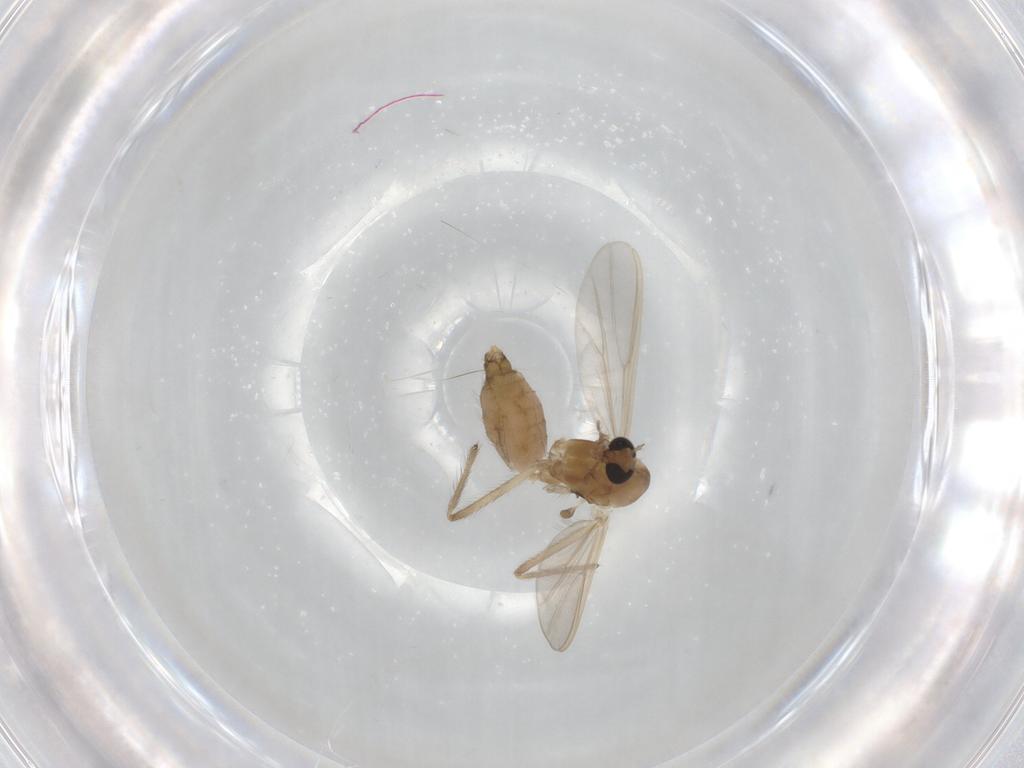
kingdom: Animalia
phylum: Arthropoda
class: Insecta
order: Diptera
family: Chironomidae
